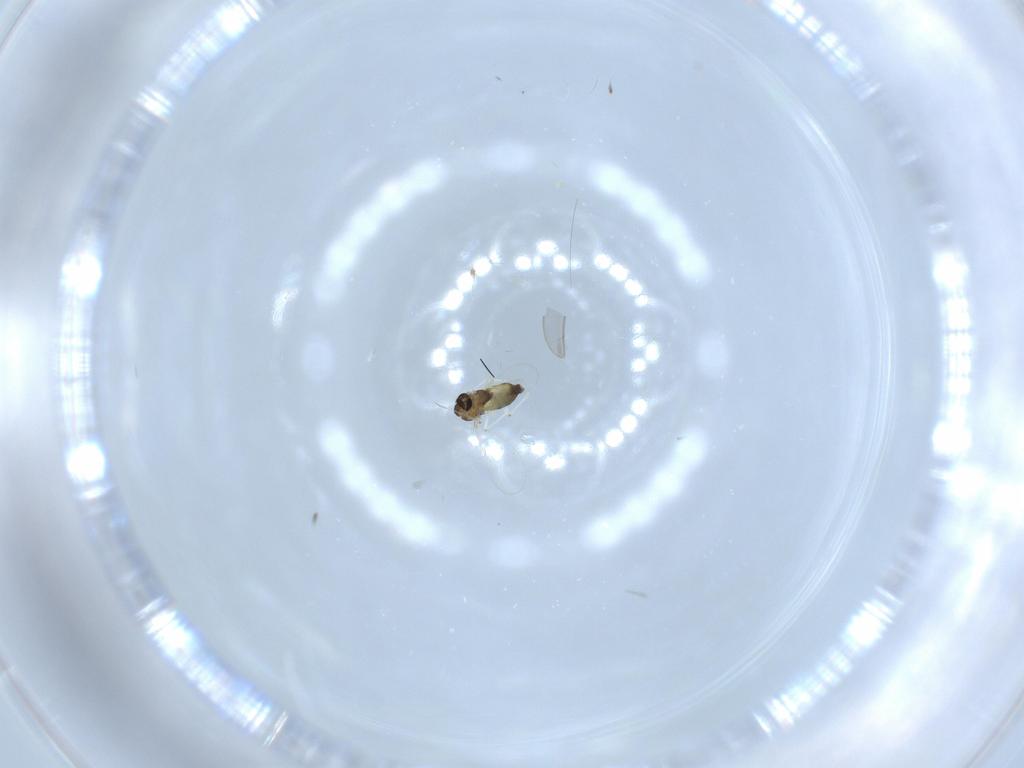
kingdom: Animalia
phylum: Arthropoda
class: Insecta
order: Diptera
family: Chironomidae
